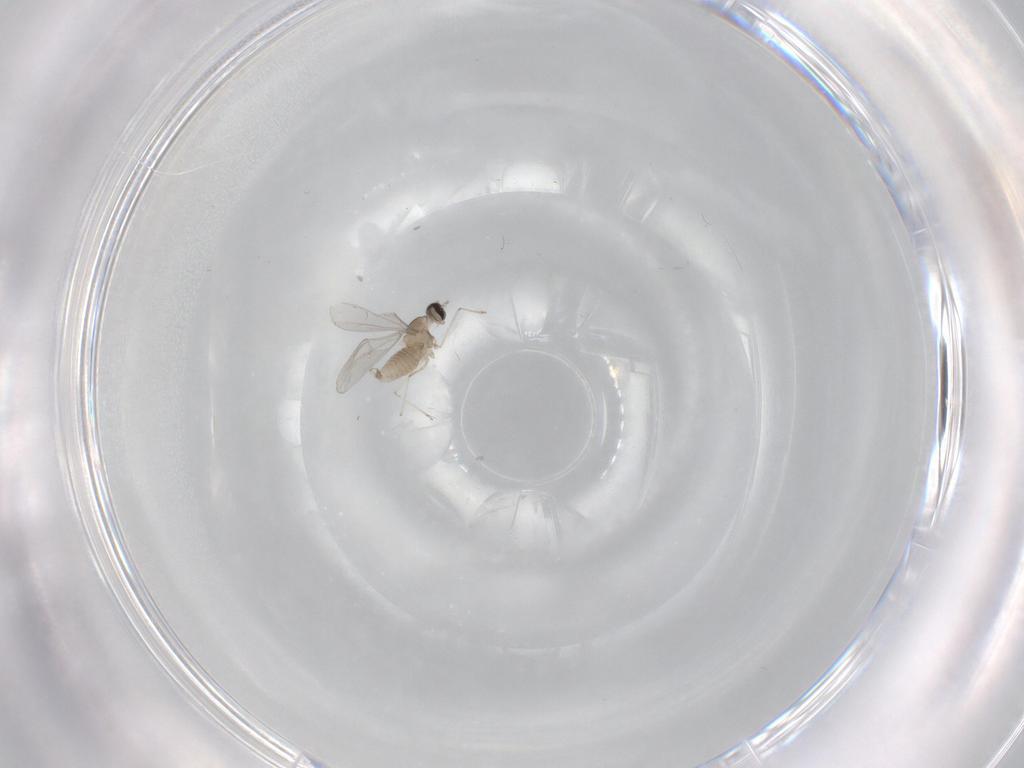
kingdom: Animalia
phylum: Arthropoda
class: Insecta
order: Diptera
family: Cecidomyiidae
